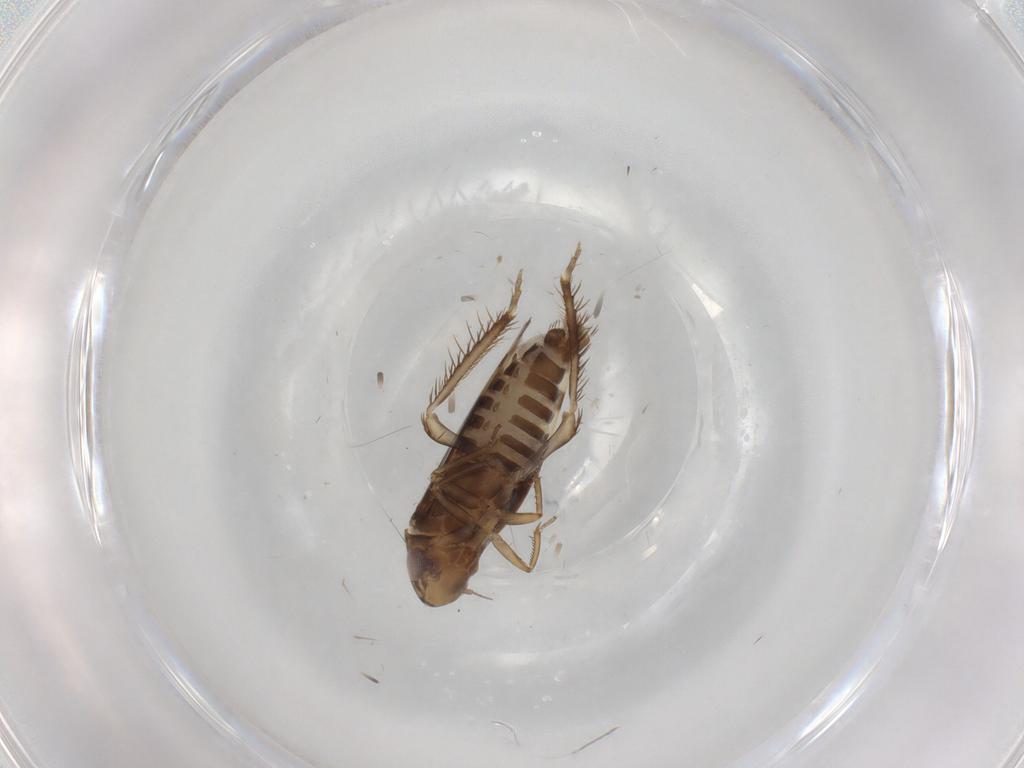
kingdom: Animalia
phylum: Arthropoda
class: Insecta
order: Hemiptera
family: Cicadellidae
